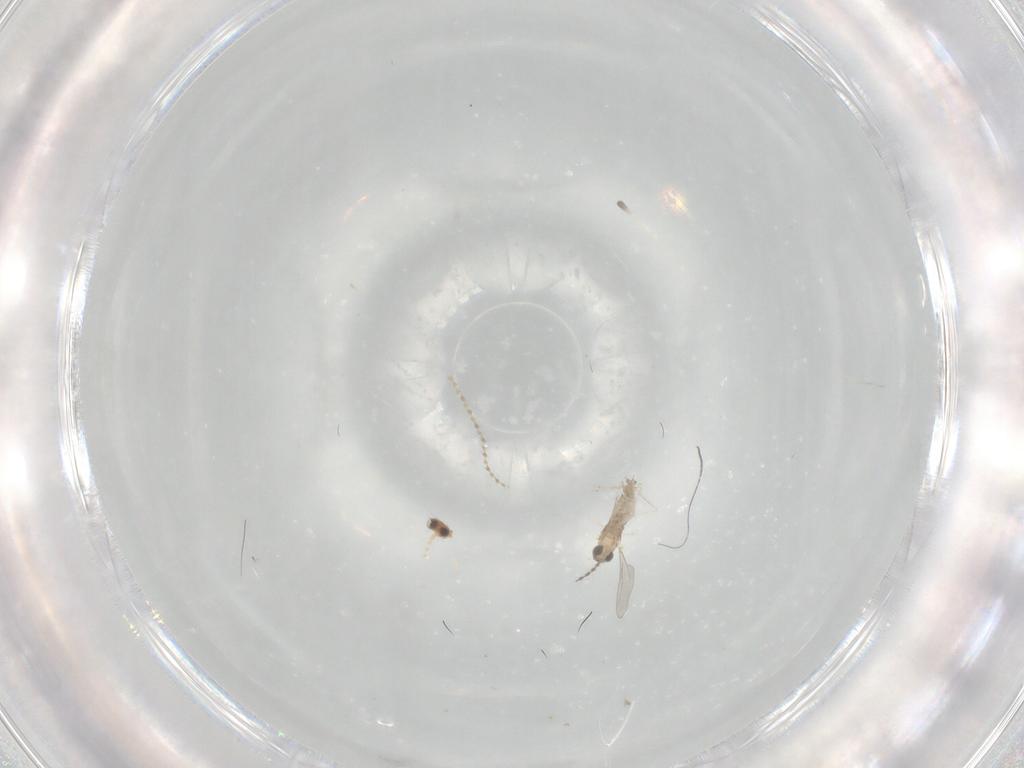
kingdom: Animalia
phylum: Arthropoda
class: Insecta
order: Diptera
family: Cecidomyiidae
